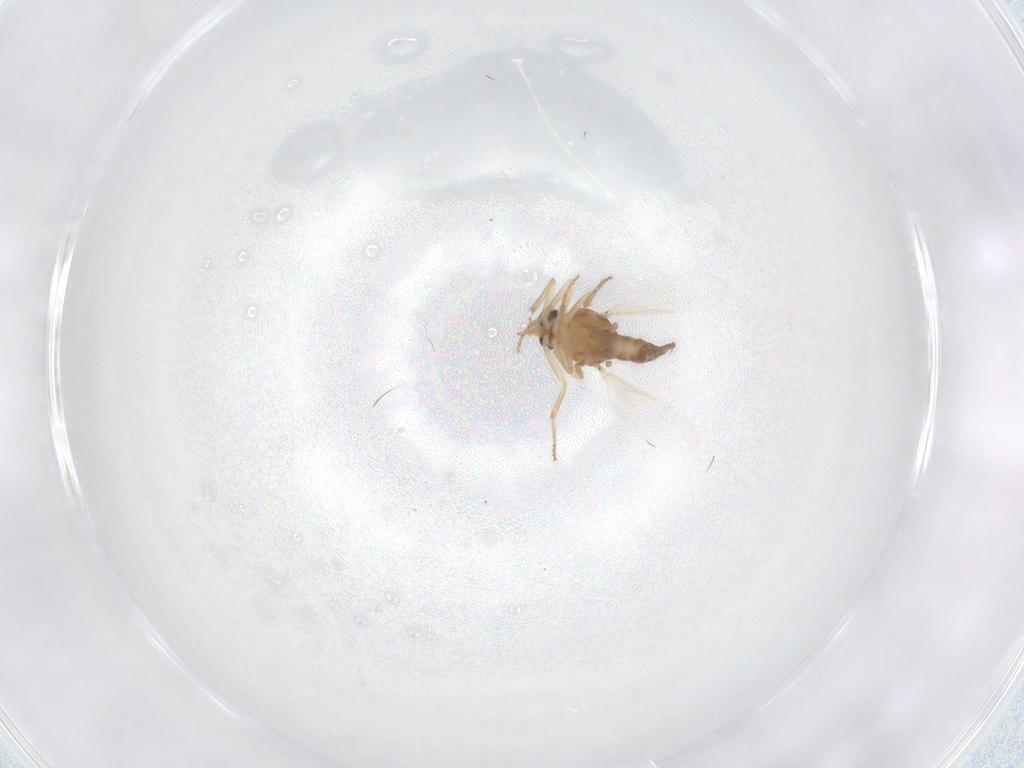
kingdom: Animalia
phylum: Arthropoda
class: Insecta
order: Diptera
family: Ceratopogonidae
